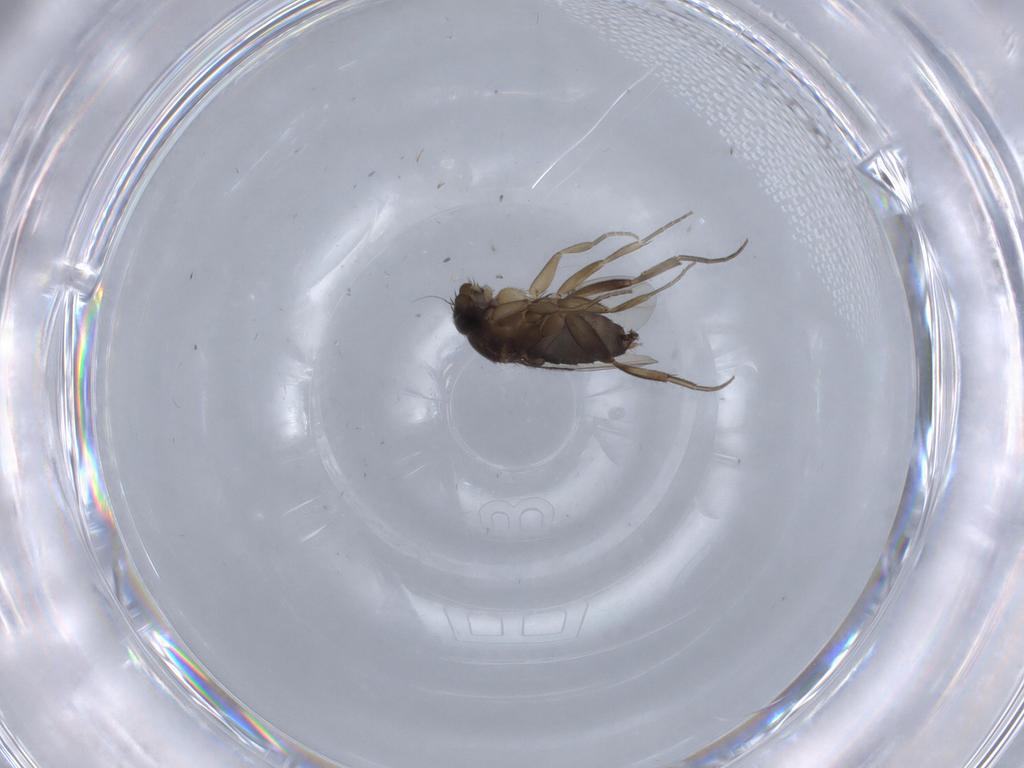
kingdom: Animalia
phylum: Arthropoda
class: Insecta
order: Diptera
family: Phoridae
